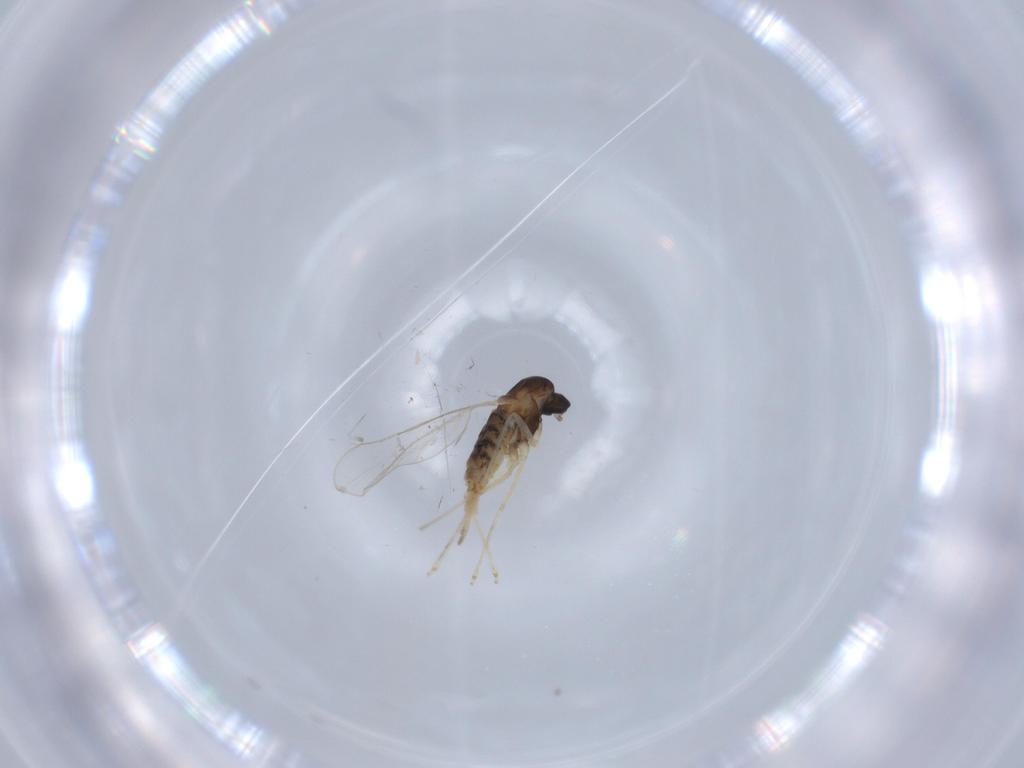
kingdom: Animalia
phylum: Arthropoda
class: Insecta
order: Diptera
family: Cecidomyiidae
